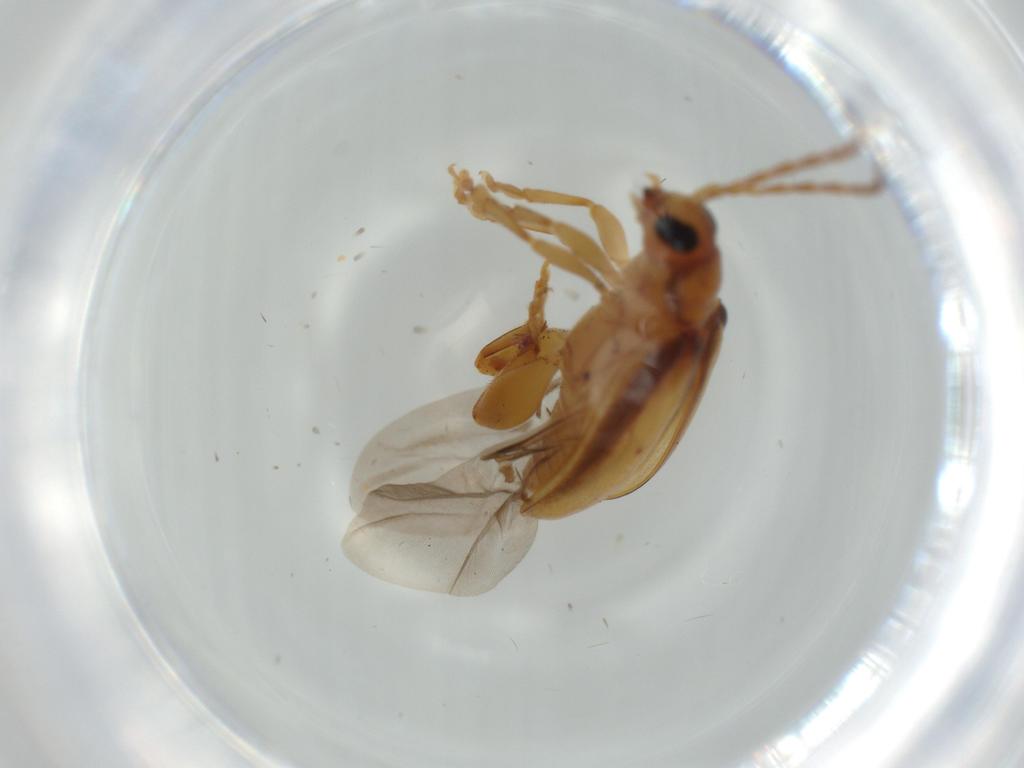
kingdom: Animalia
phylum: Arthropoda
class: Insecta
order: Coleoptera
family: Chrysomelidae
